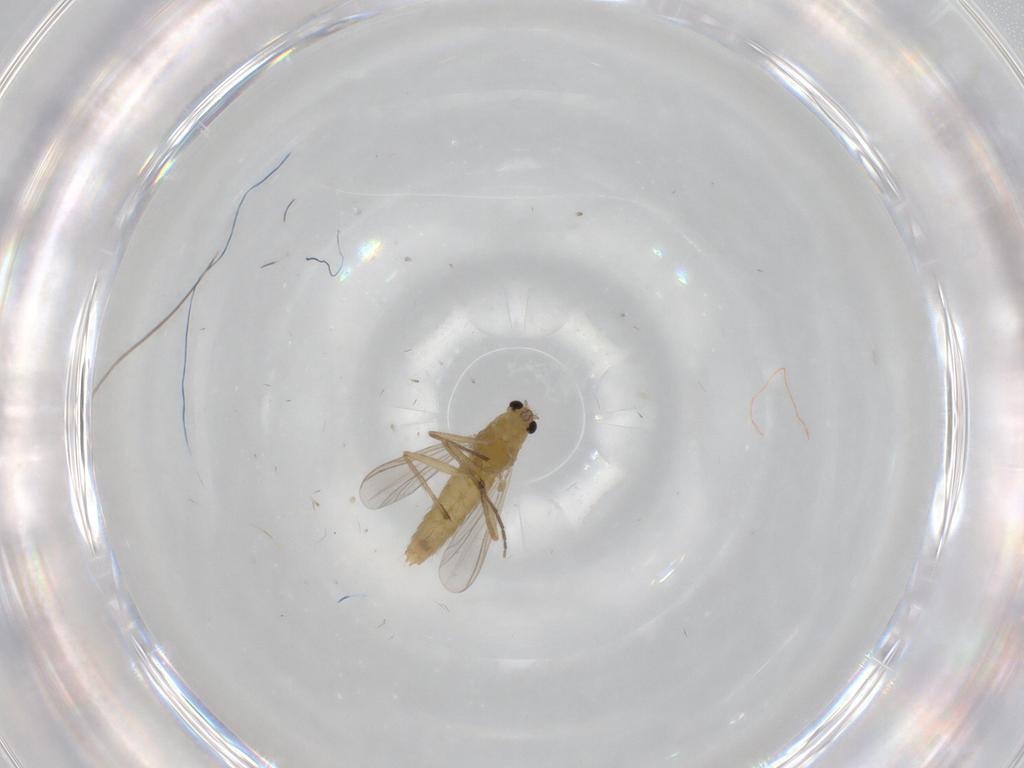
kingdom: Animalia
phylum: Arthropoda
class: Insecta
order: Diptera
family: Chironomidae
